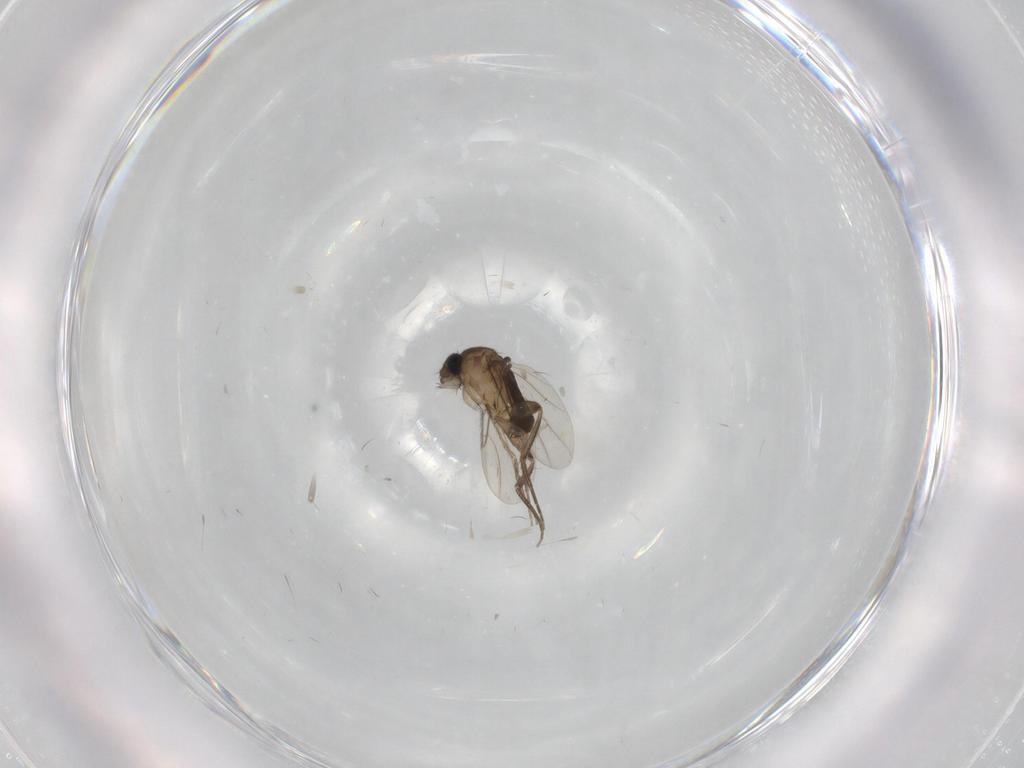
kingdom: Animalia
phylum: Arthropoda
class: Insecta
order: Diptera
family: Phoridae
